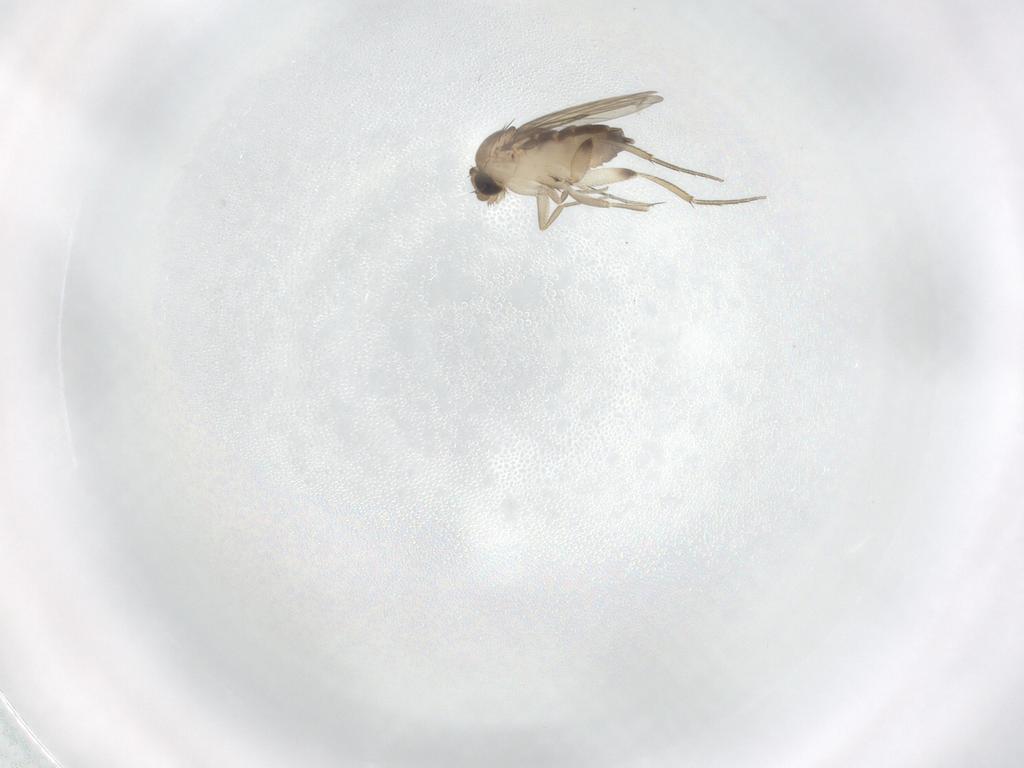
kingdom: Animalia
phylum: Arthropoda
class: Insecta
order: Diptera
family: Phoridae
